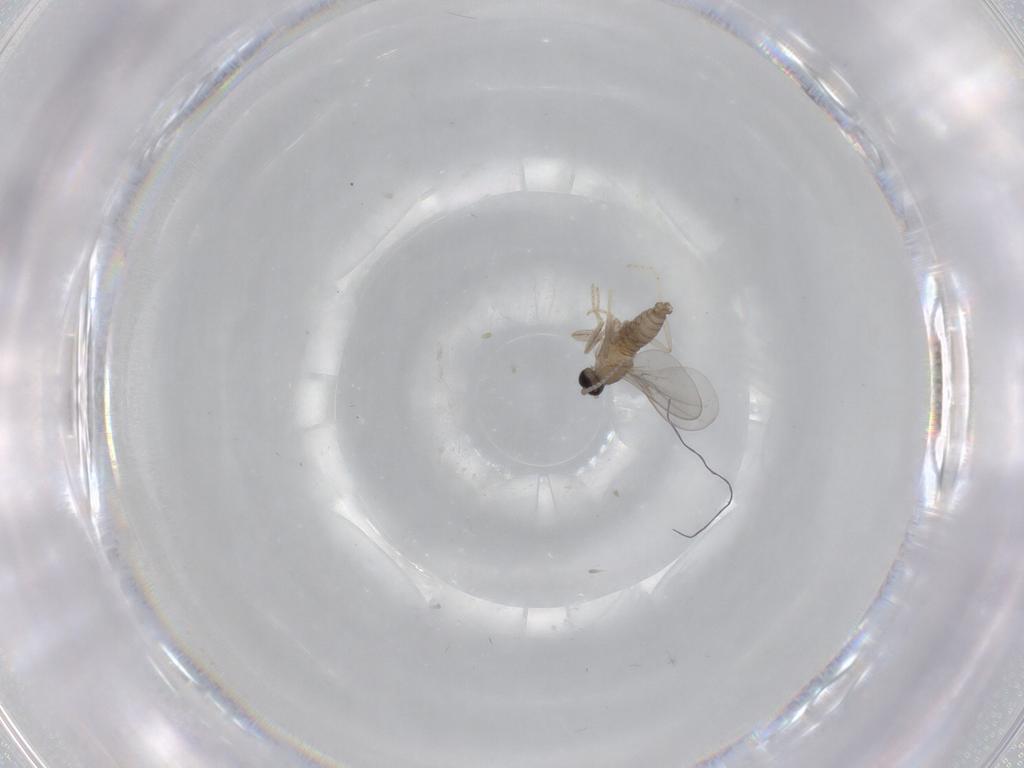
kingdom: Animalia
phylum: Arthropoda
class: Insecta
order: Diptera
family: Cecidomyiidae
